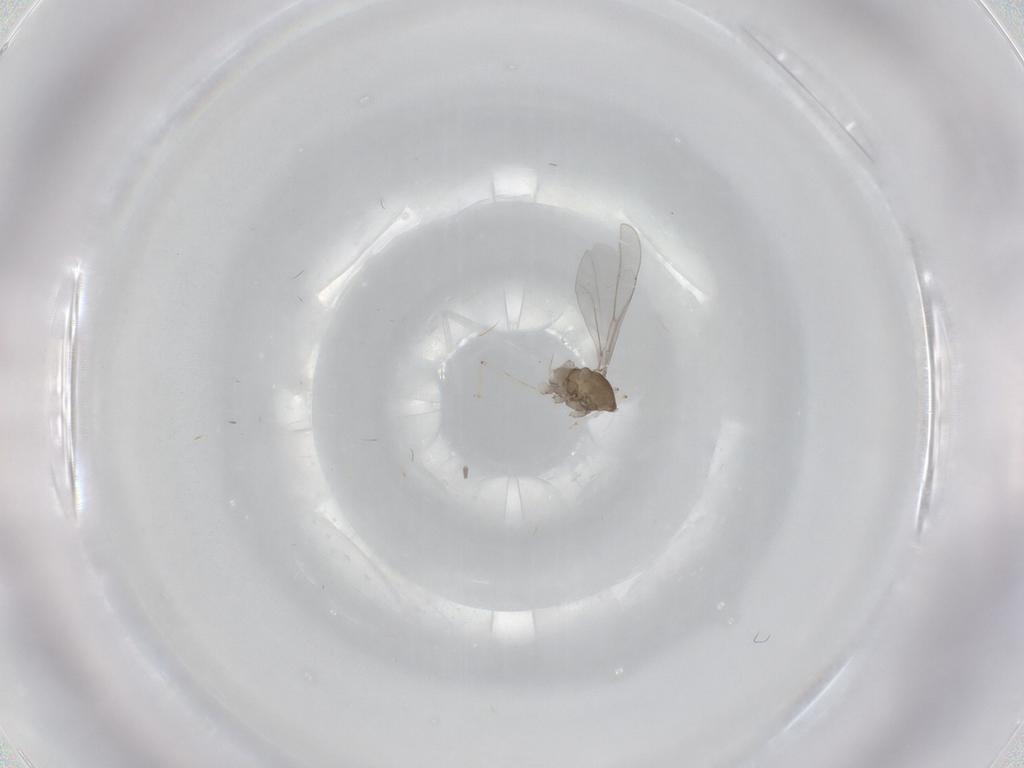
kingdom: Animalia
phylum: Arthropoda
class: Insecta
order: Diptera
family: Cecidomyiidae
